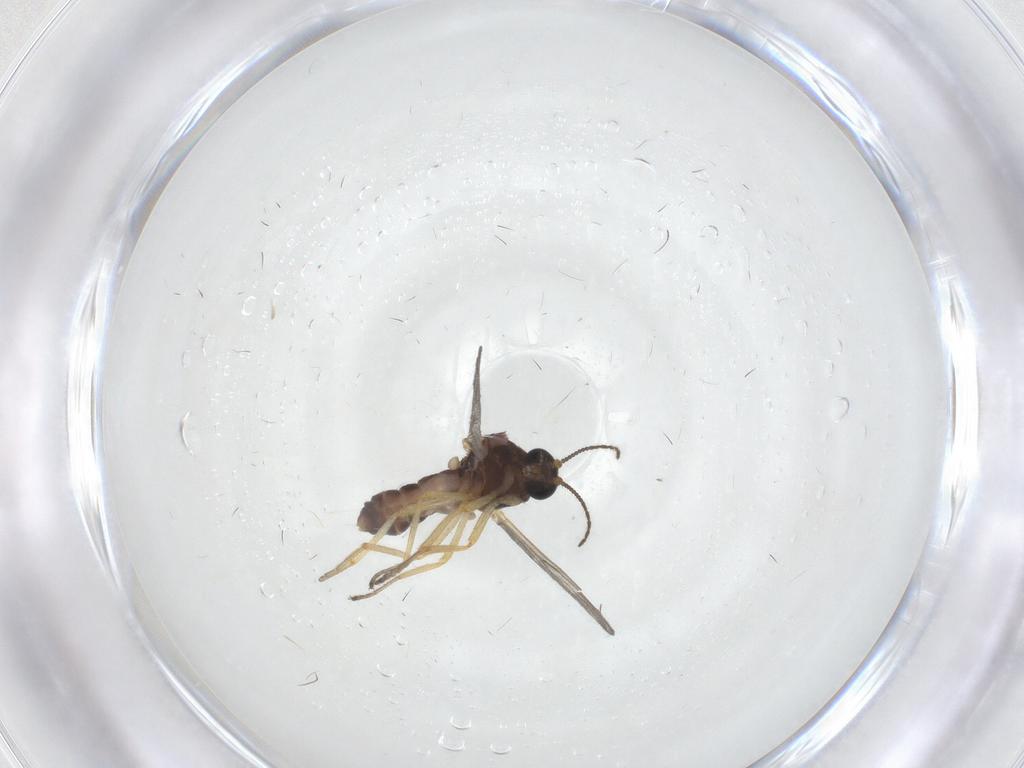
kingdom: Animalia
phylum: Arthropoda
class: Insecta
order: Diptera
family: Ceratopogonidae
